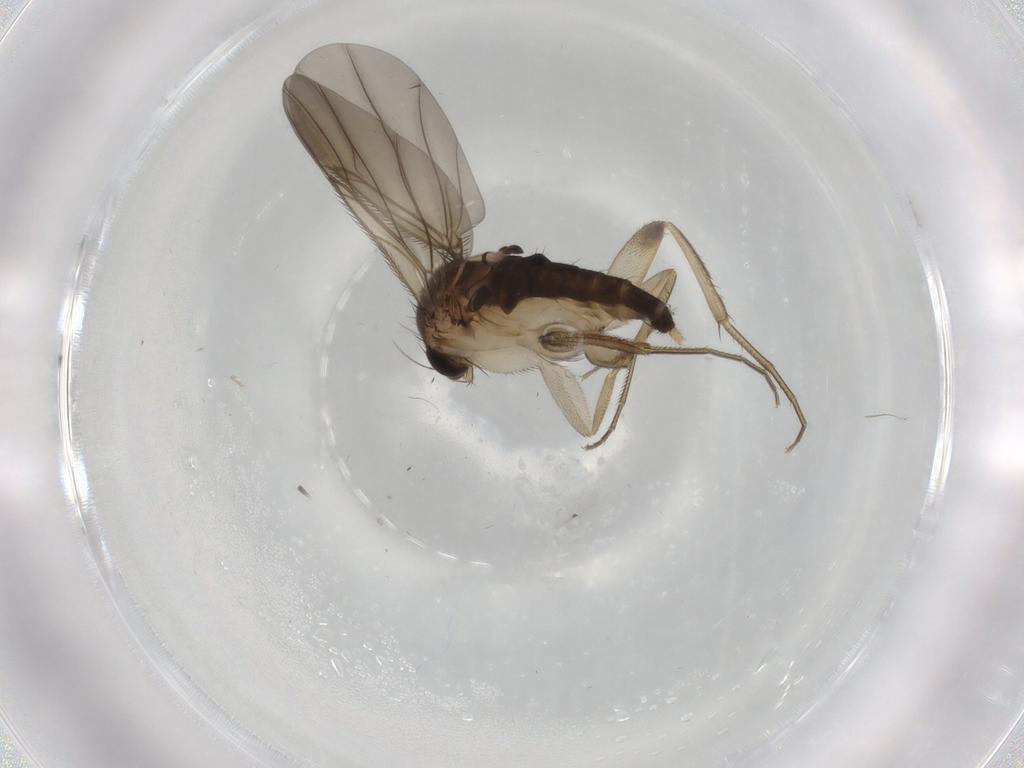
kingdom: Animalia
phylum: Arthropoda
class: Insecta
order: Diptera
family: Phoridae
